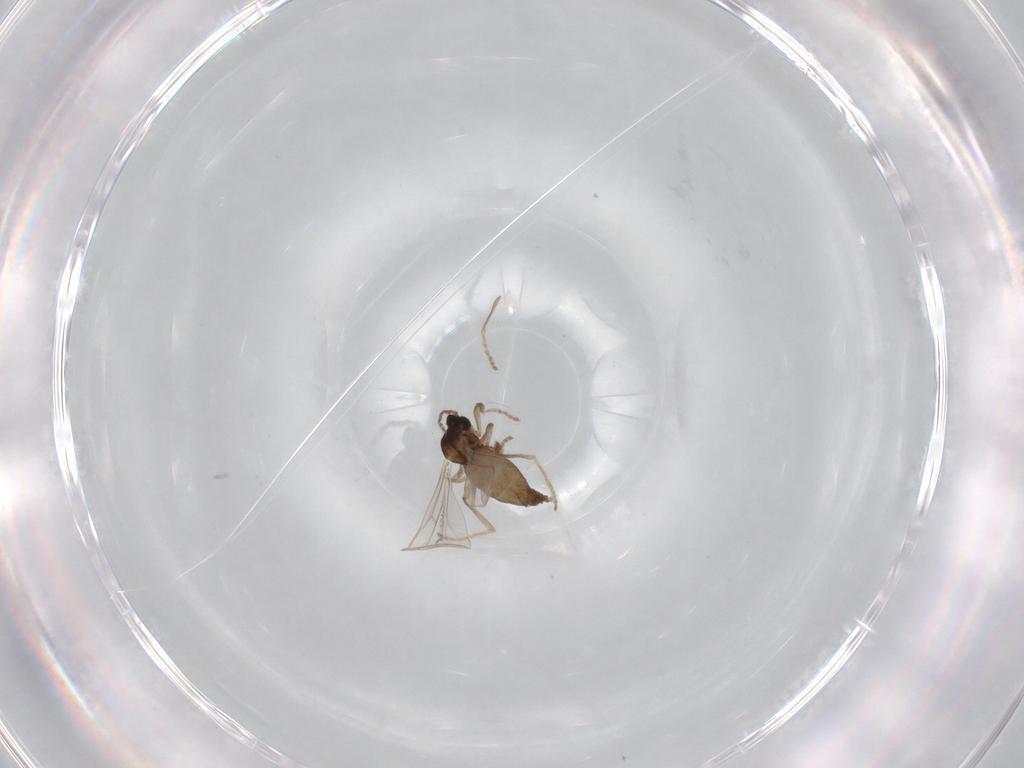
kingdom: Animalia
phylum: Arthropoda
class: Insecta
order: Diptera
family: Cecidomyiidae
